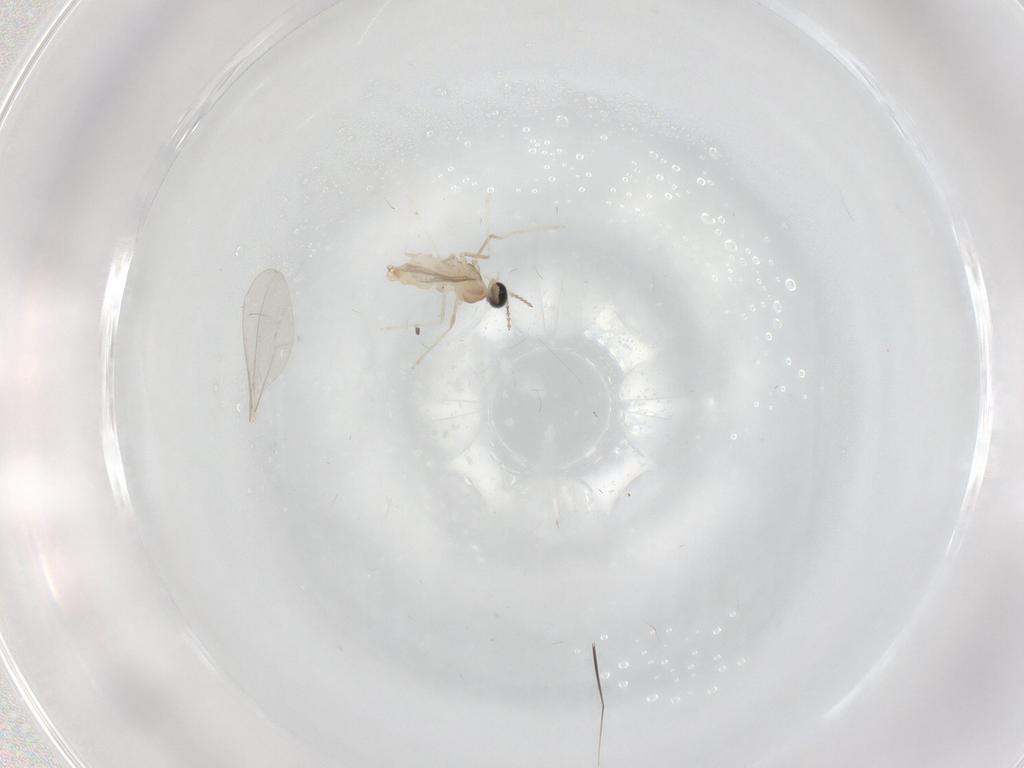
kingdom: Animalia
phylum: Arthropoda
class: Insecta
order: Diptera
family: Cecidomyiidae
